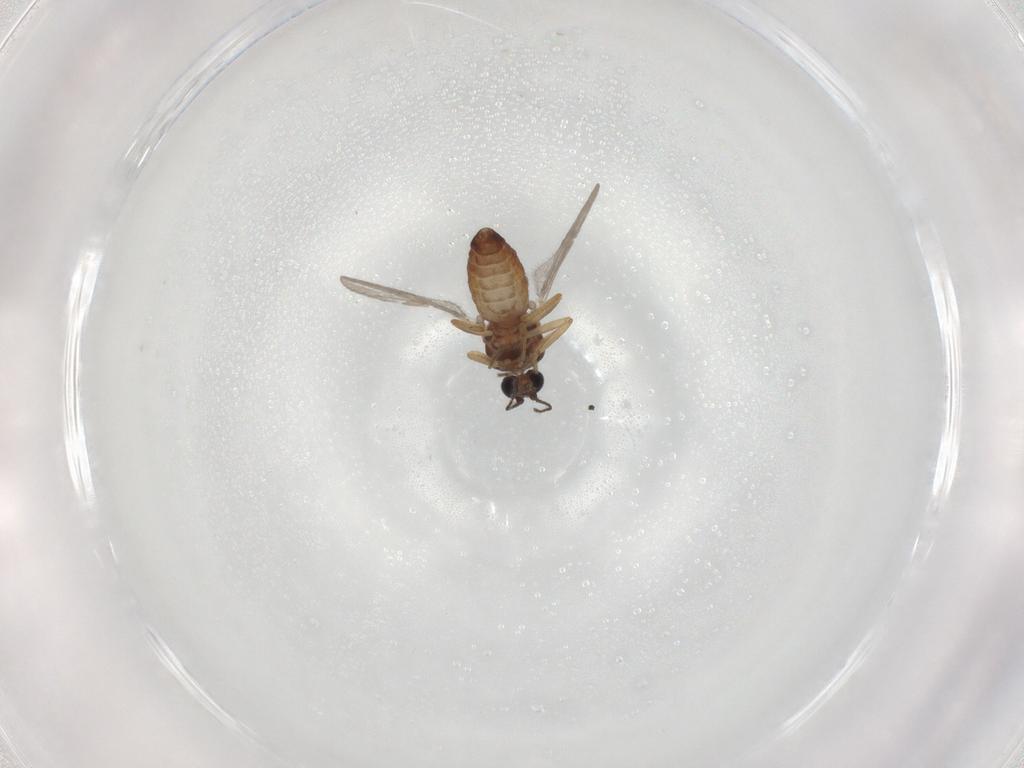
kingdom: Animalia
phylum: Arthropoda
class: Insecta
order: Diptera
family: Ceratopogonidae
